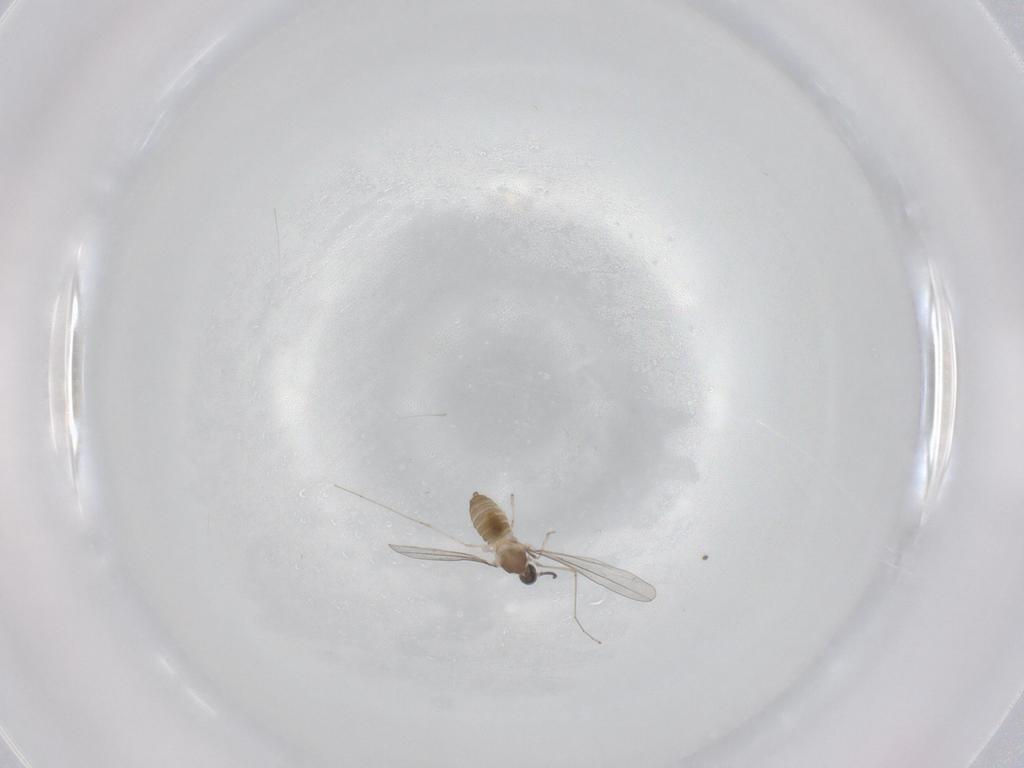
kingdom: Animalia
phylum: Arthropoda
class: Insecta
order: Diptera
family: Cecidomyiidae
